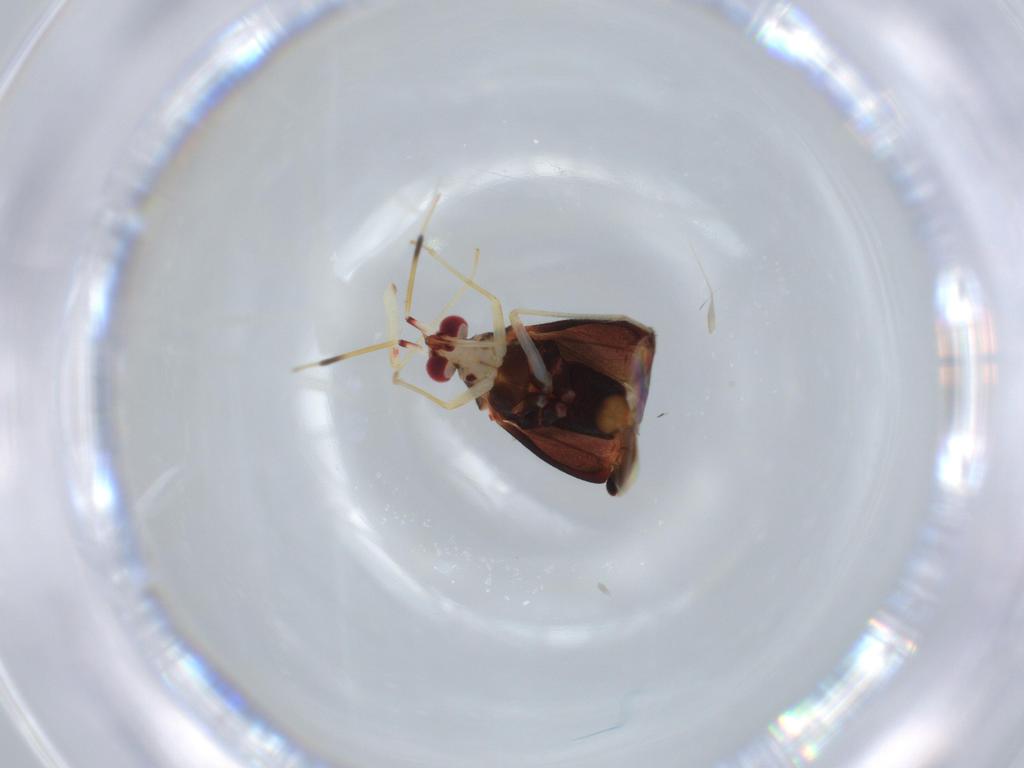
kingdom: Animalia
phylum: Arthropoda
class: Insecta
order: Hemiptera
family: Miridae
